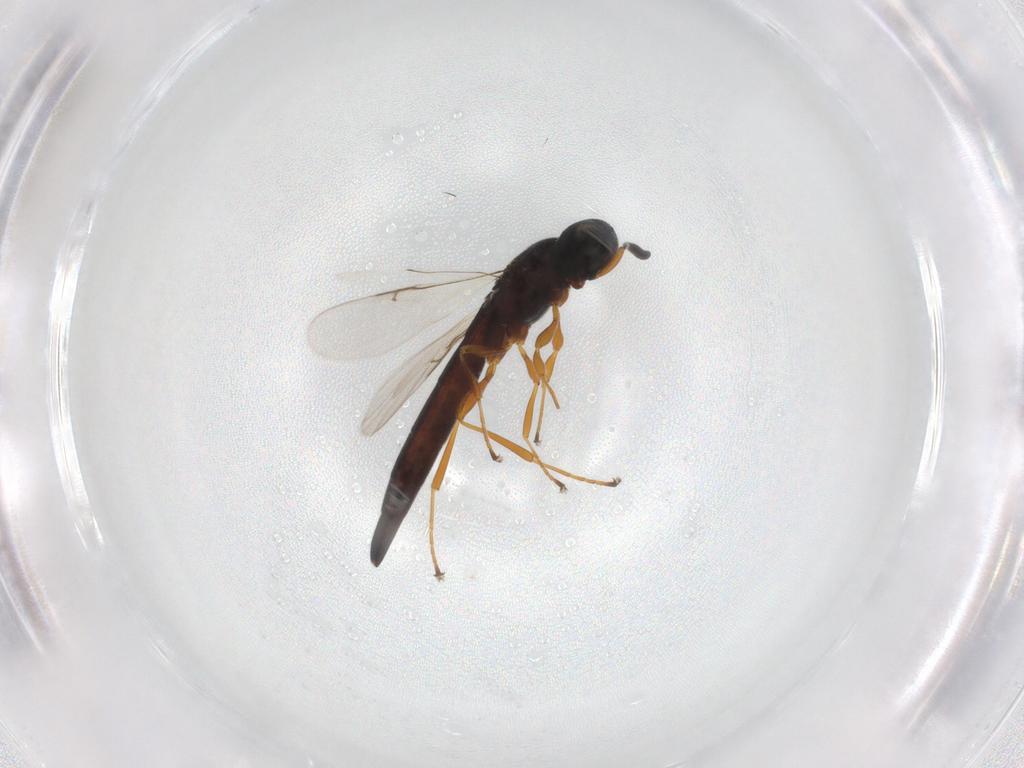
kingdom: Animalia
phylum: Arthropoda
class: Insecta
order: Hymenoptera
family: Scelionidae
